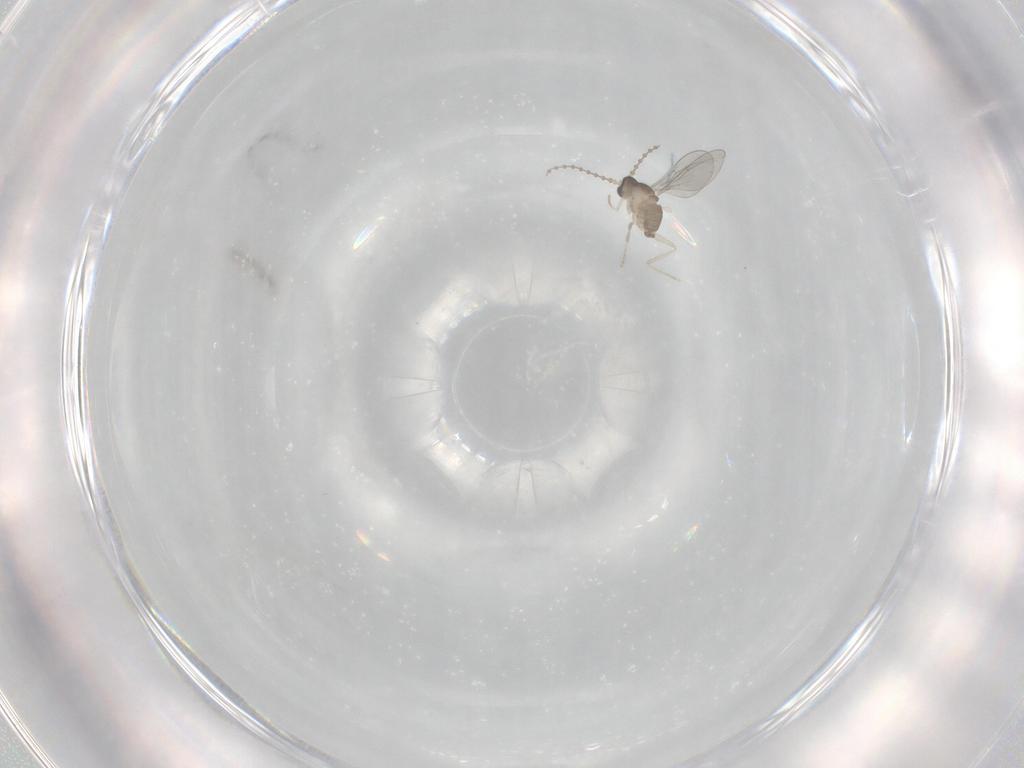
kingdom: Animalia
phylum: Arthropoda
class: Insecta
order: Diptera
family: Cecidomyiidae
